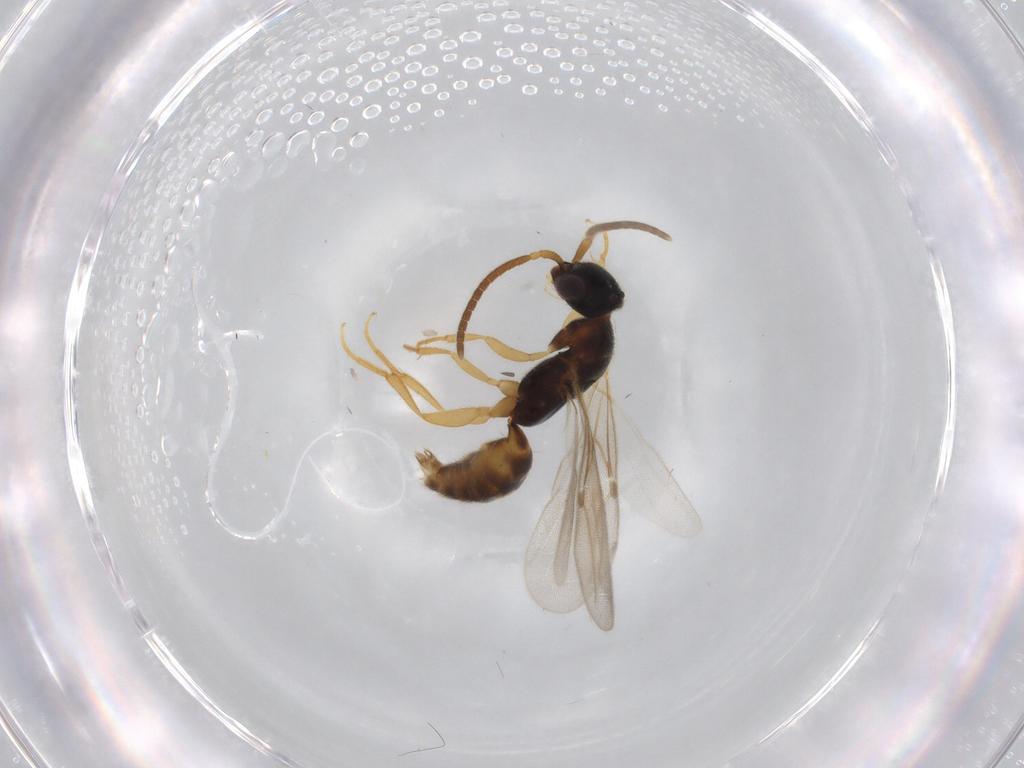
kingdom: Animalia
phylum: Arthropoda
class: Insecta
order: Hymenoptera
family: Bethylidae
